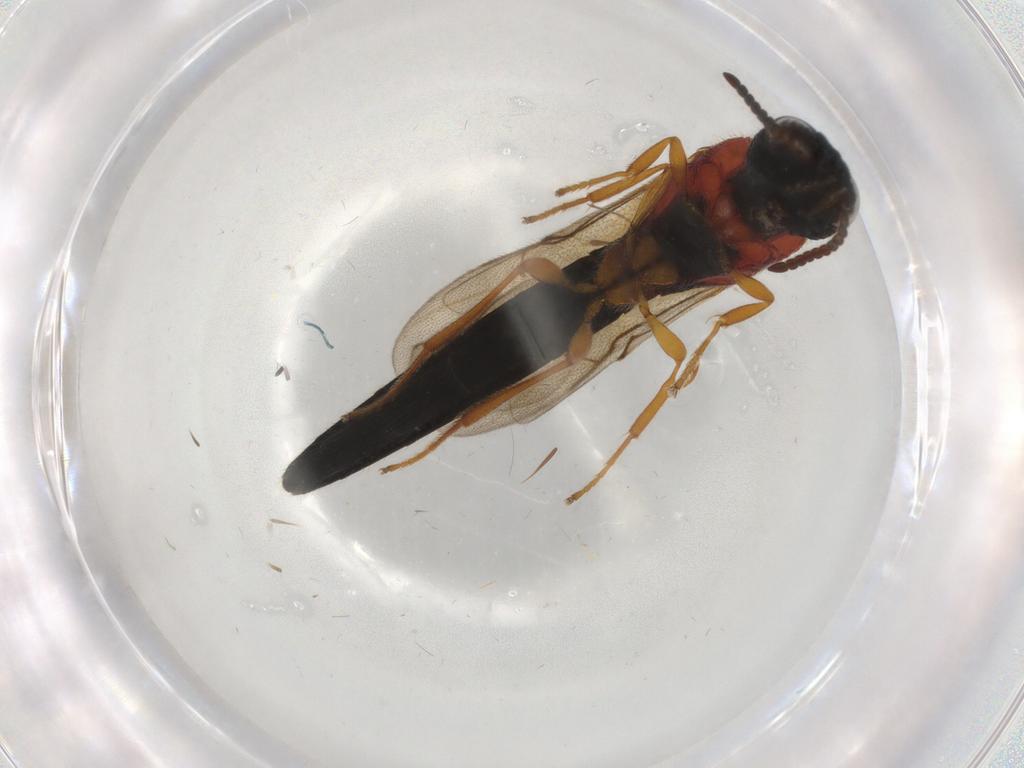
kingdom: Animalia
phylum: Arthropoda
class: Insecta
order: Hymenoptera
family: Scelionidae
